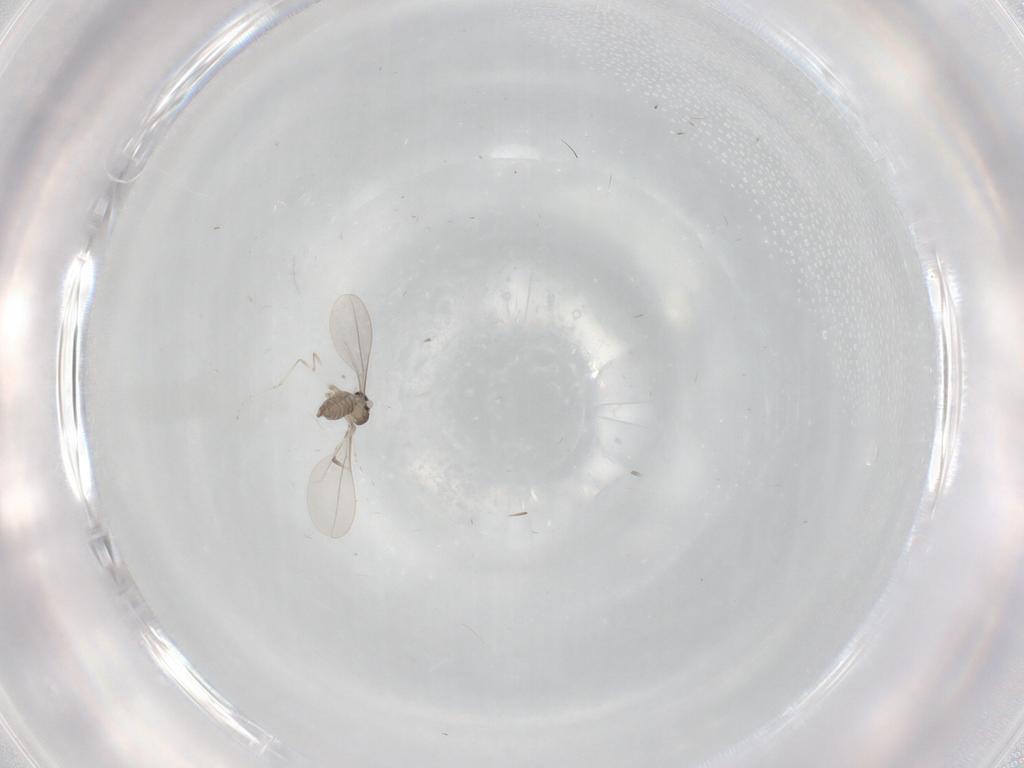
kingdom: Animalia
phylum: Arthropoda
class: Insecta
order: Diptera
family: Cecidomyiidae
